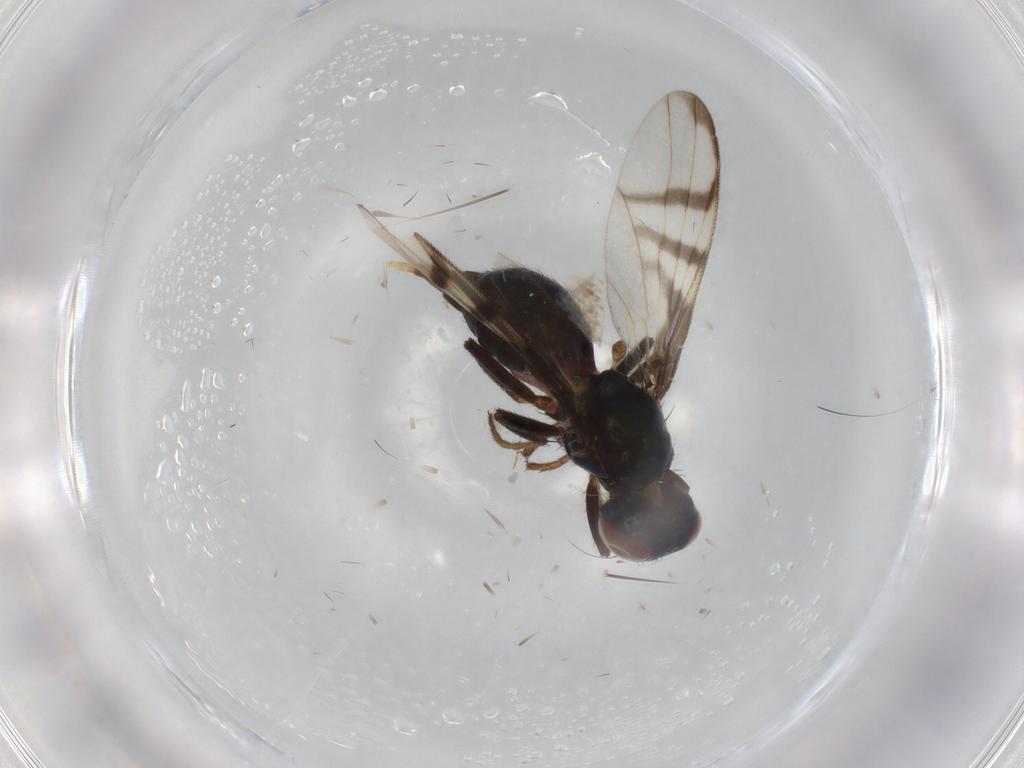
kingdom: Animalia
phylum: Arthropoda
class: Insecta
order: Diptera
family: Platystomatidae
